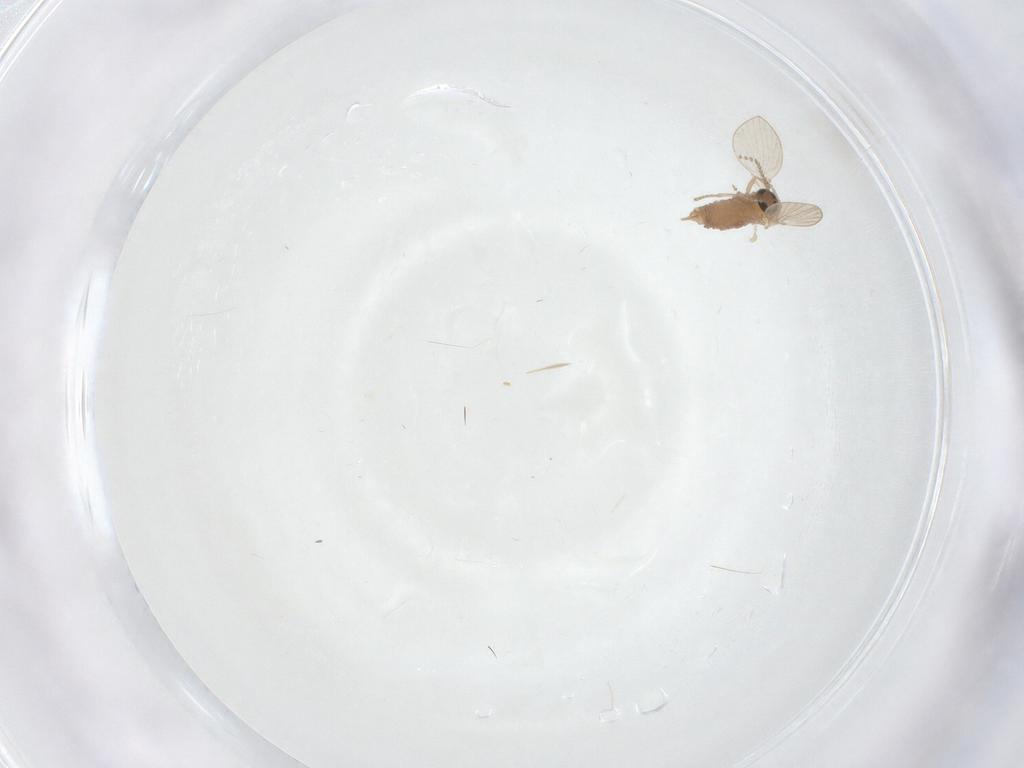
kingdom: Animalia
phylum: Arthropoda
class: Insecta
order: Diptera
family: Psychodidae
